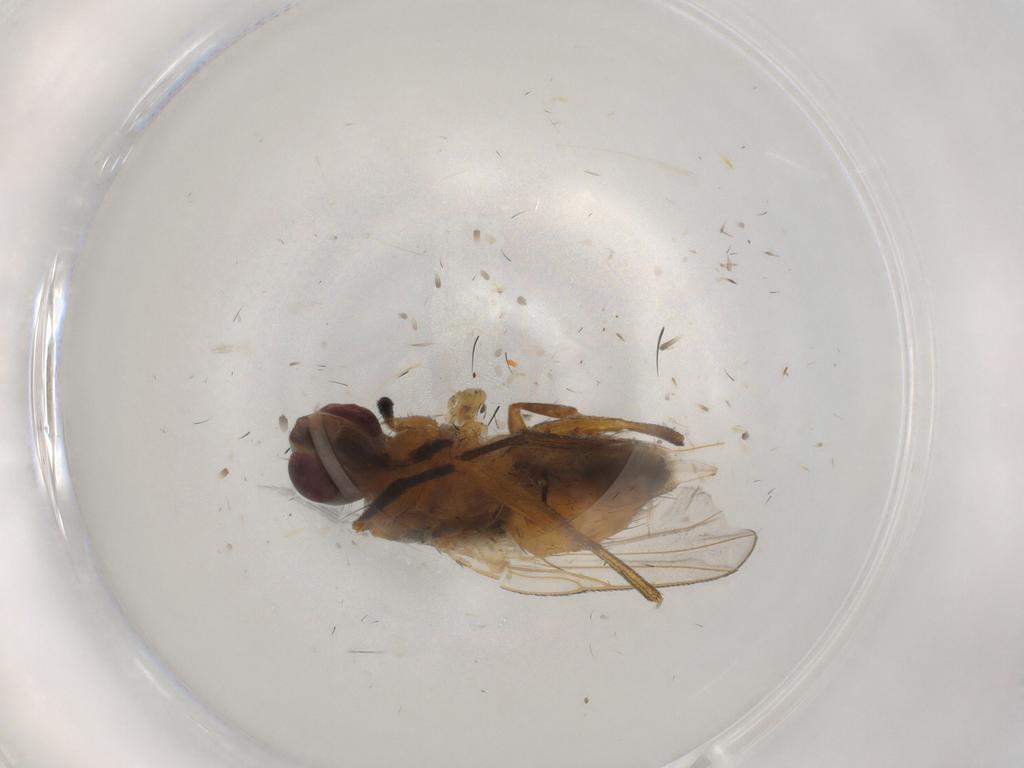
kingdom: Animalia
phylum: Arthropoda
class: Insecta
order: Diptera
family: Muscidae
